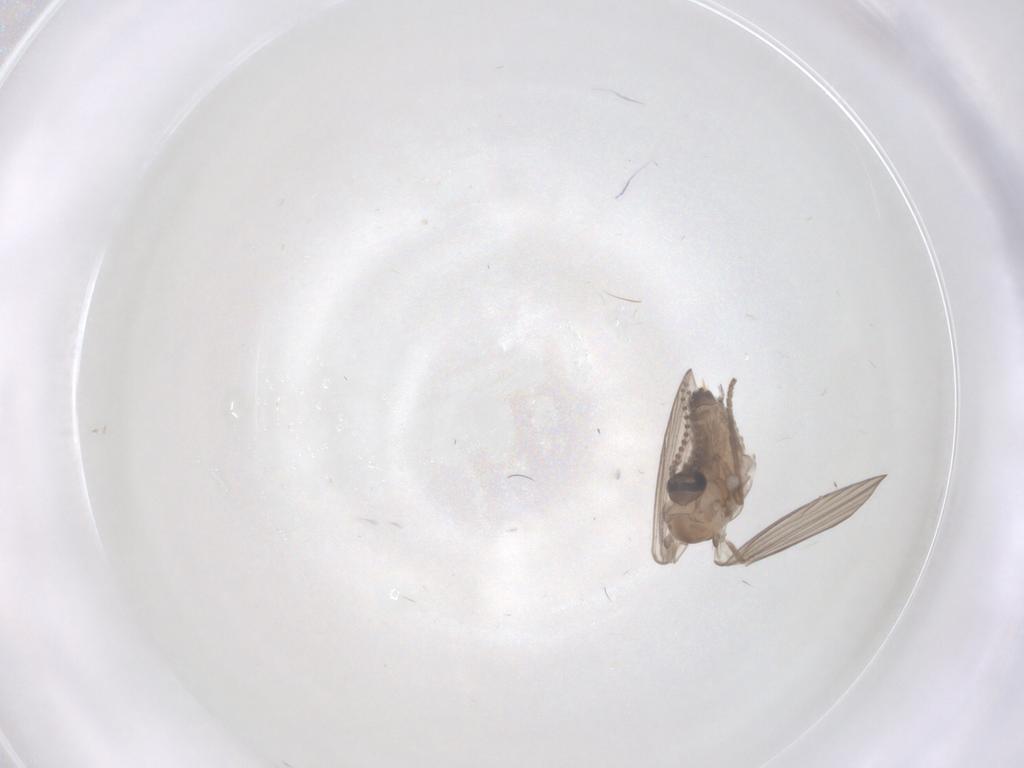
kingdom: Animalia
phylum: Arthropoda
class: Insecta
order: Diptera
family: Psychodidae
